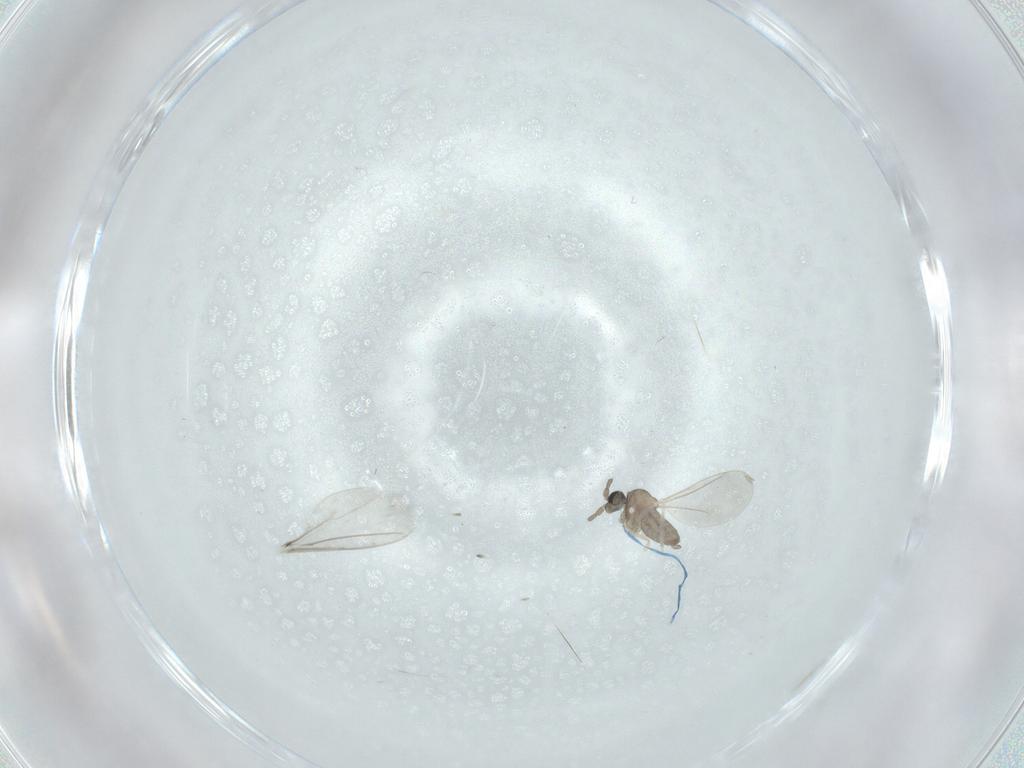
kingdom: Animalia
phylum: Arthropoda
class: Insecta
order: Diptera
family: Cecidomyiidae
